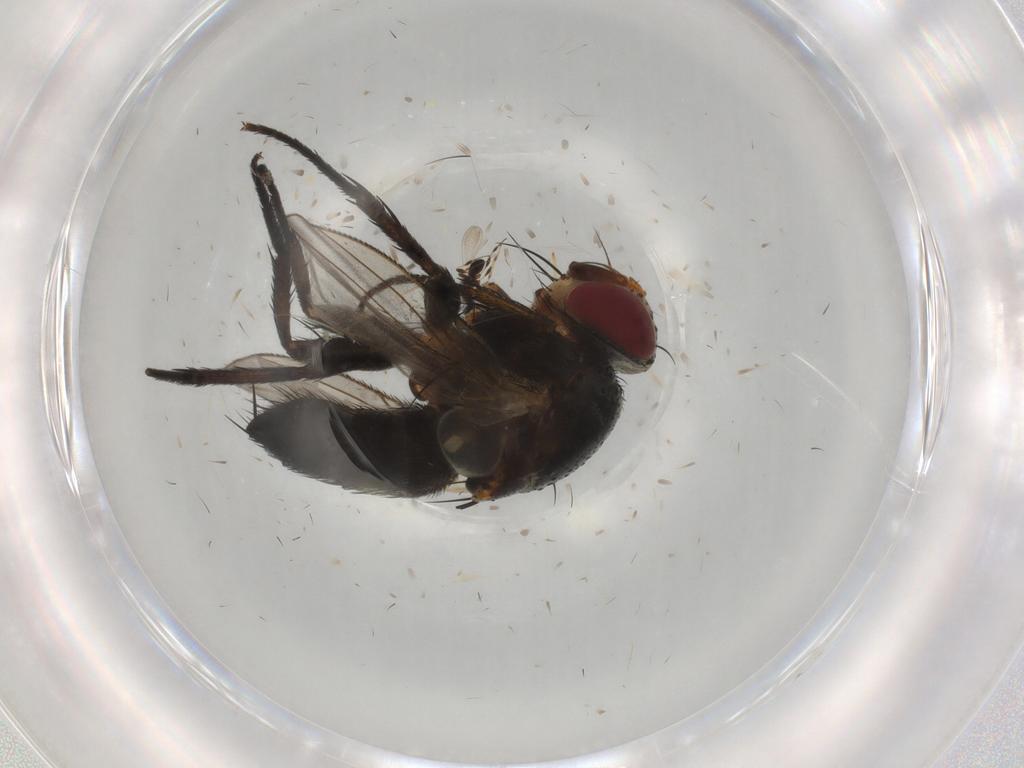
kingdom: Animalia
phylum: Arthropoda
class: Insecta
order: Diptera
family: Tachinidae
